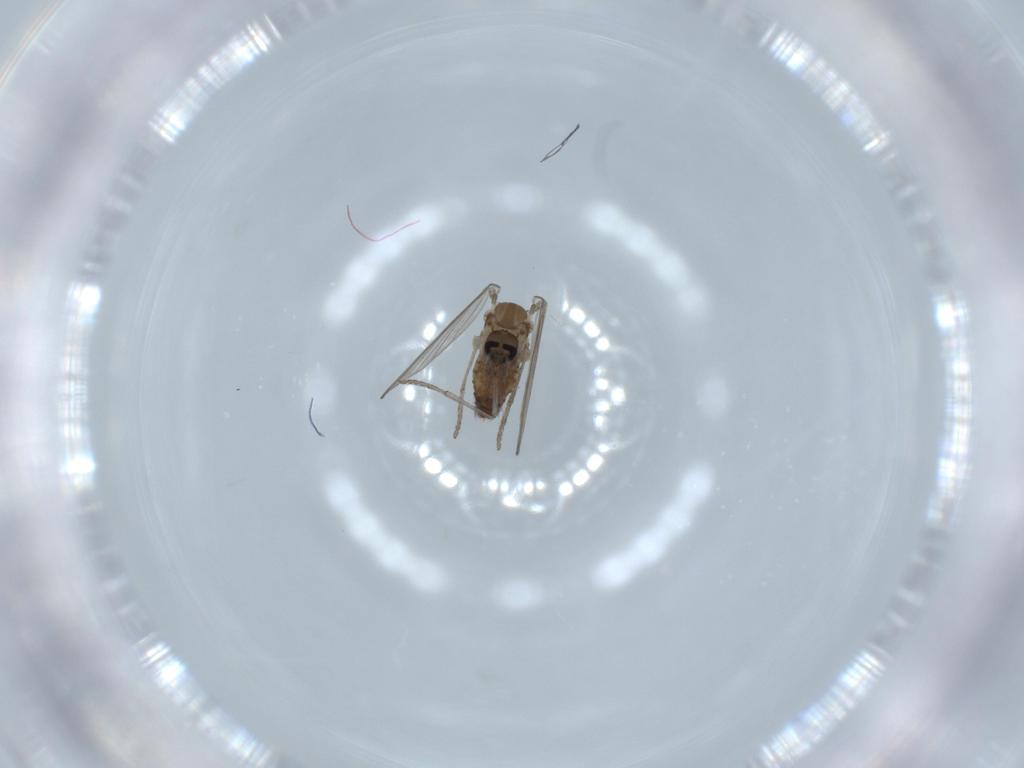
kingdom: Animalia
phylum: Arthropoda
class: Insecta
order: Diptera
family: Psychodidae
